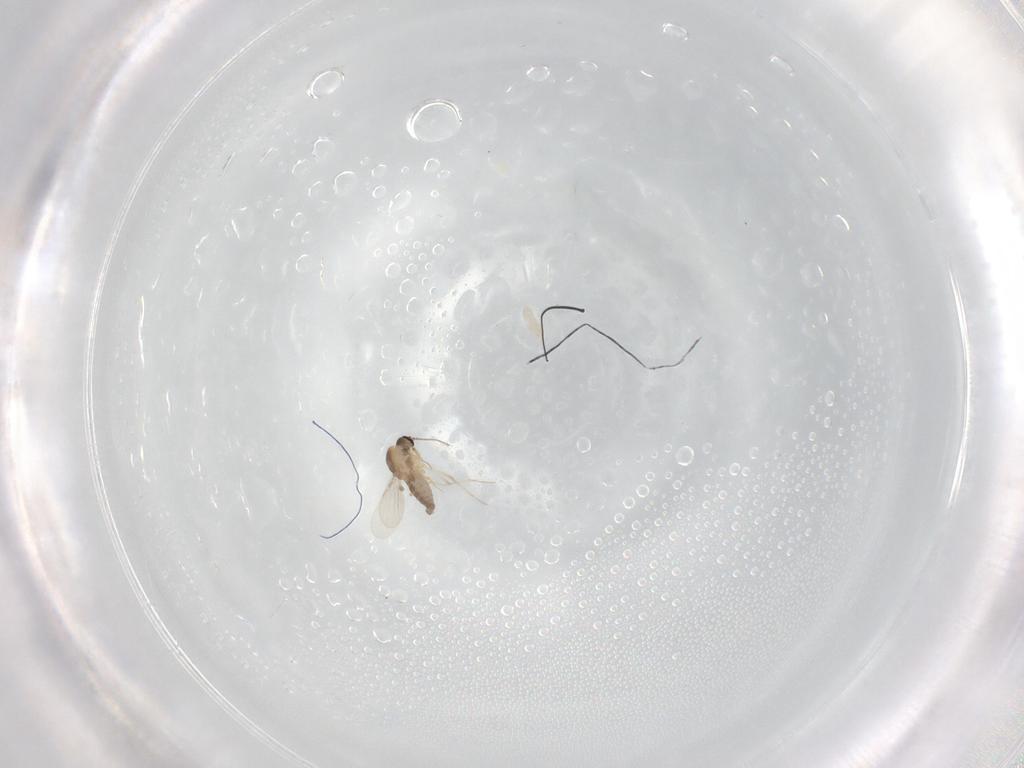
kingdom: Animalia
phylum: Arthropoda
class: Insecta
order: Diptera
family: Ceratopogonidae
